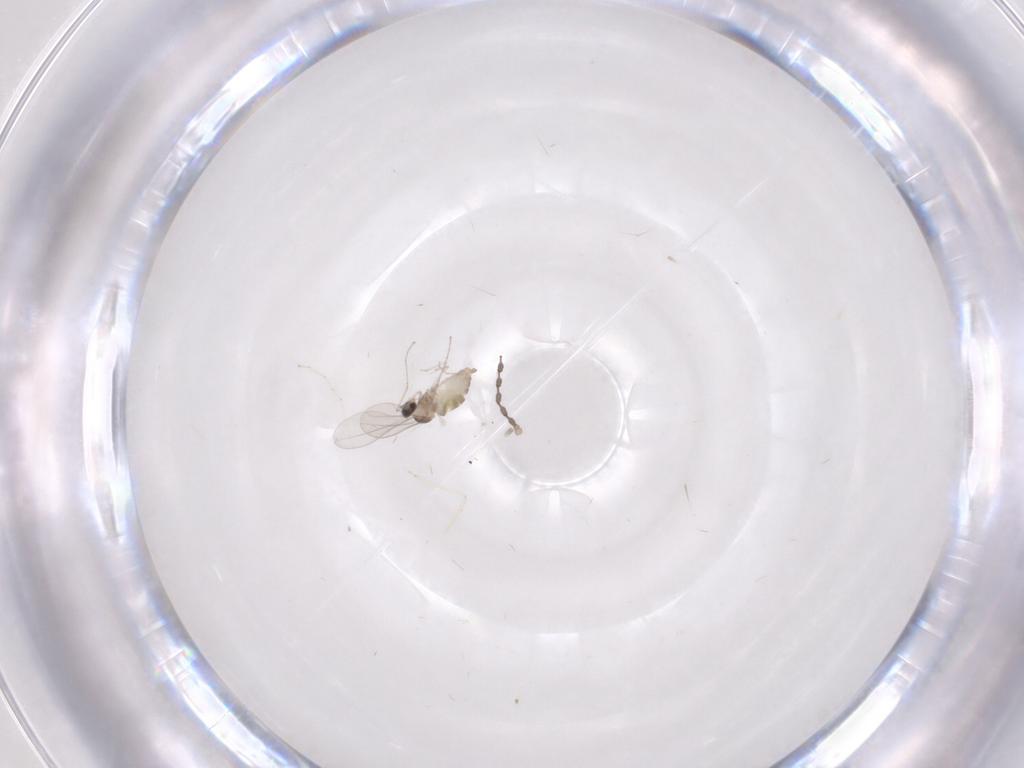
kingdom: Animalia
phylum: Arthropoda
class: Insecta
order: Diptera
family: Cecidomyiidae
